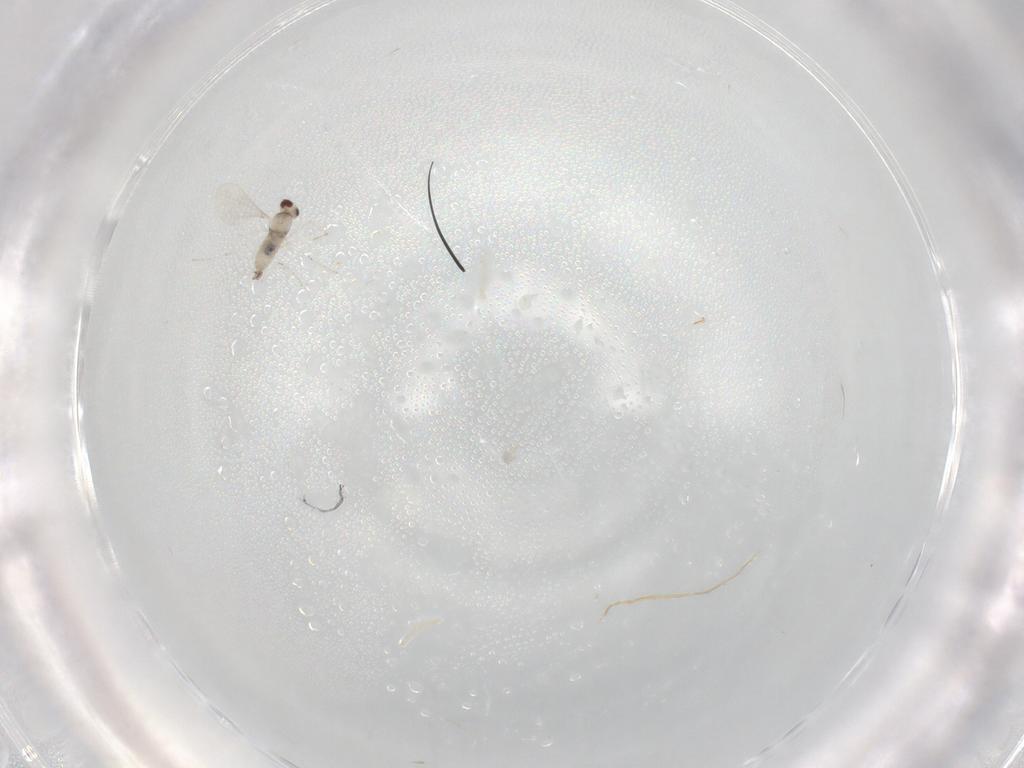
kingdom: Animalia
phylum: Arthropoda
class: Insecta
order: Diptera
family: Cecidomyiidae
